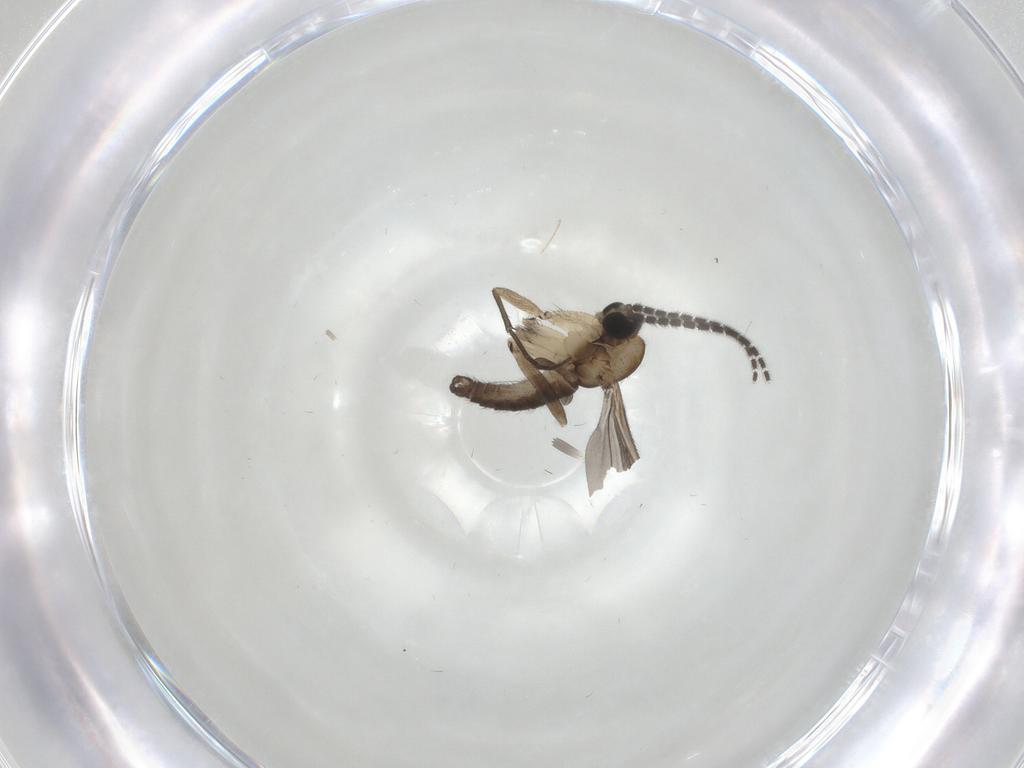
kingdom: Animalia
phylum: Arthropoda
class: Insecta
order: Diptera
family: Sciaridae
